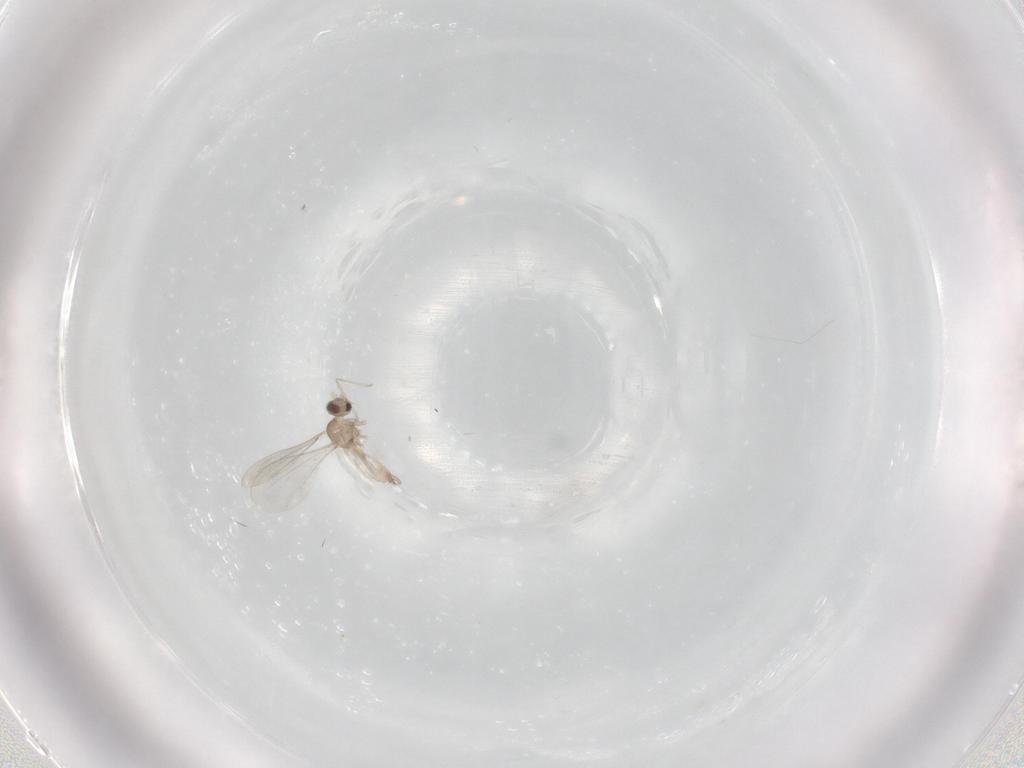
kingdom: Animalia
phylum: Arthropoda
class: Insecta
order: Diptera
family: Cecidomyiidae
